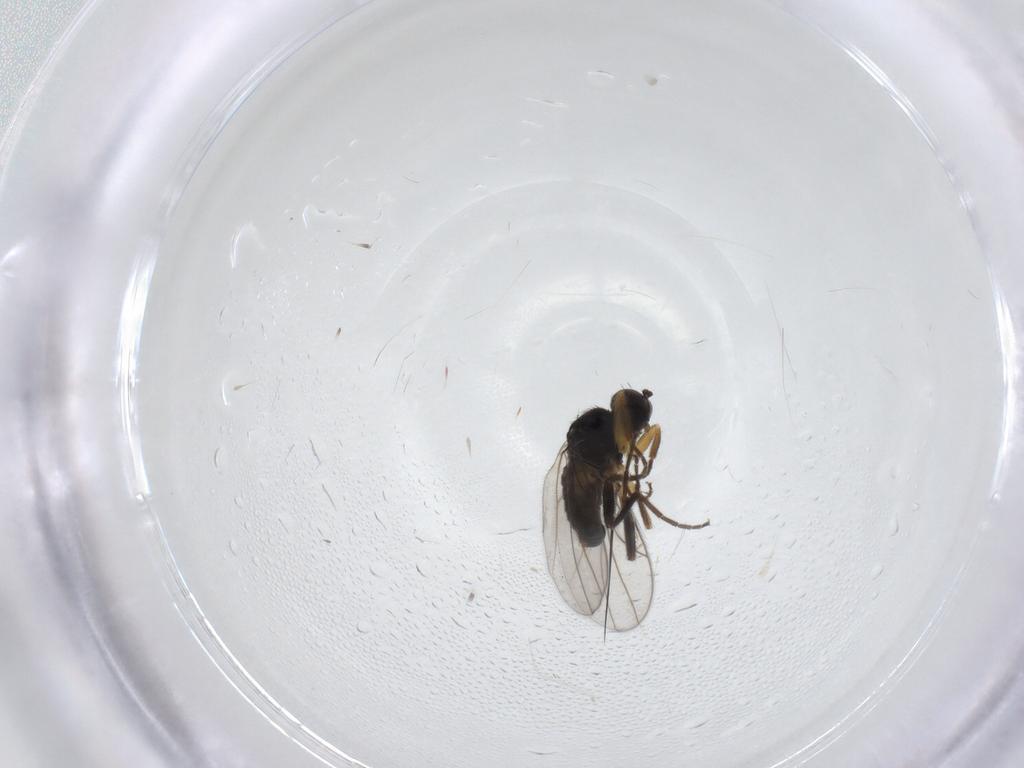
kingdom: Animalia
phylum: Arthropoda
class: Insecta
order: Diptera
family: Hybotidae
